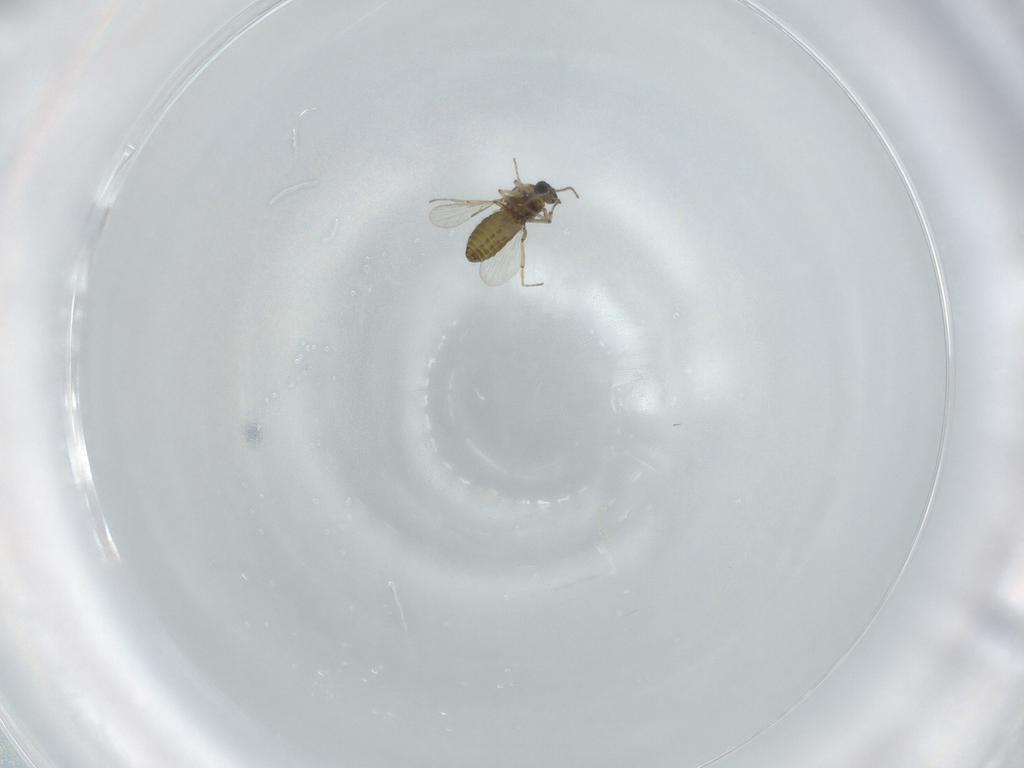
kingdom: Animalia
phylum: Arthropoda
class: Insecta
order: Diptera
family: Ceratopogonidae
